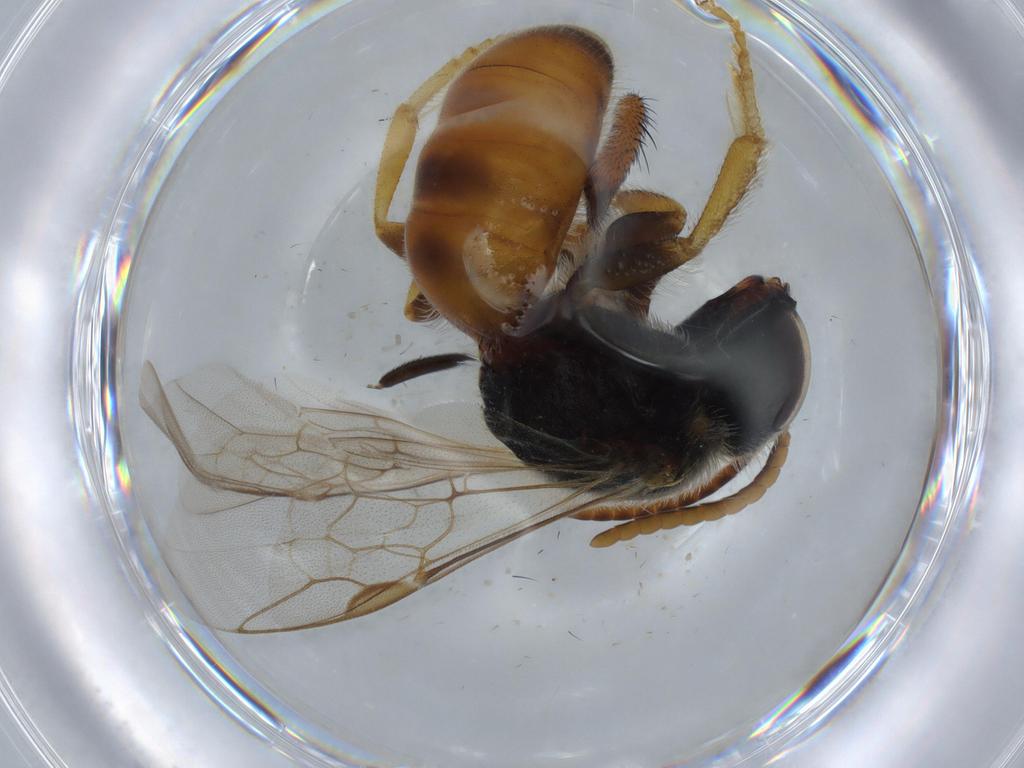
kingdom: Animalia
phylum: Arthropoda
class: Insecta
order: Hymenoptera
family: Halictidae
